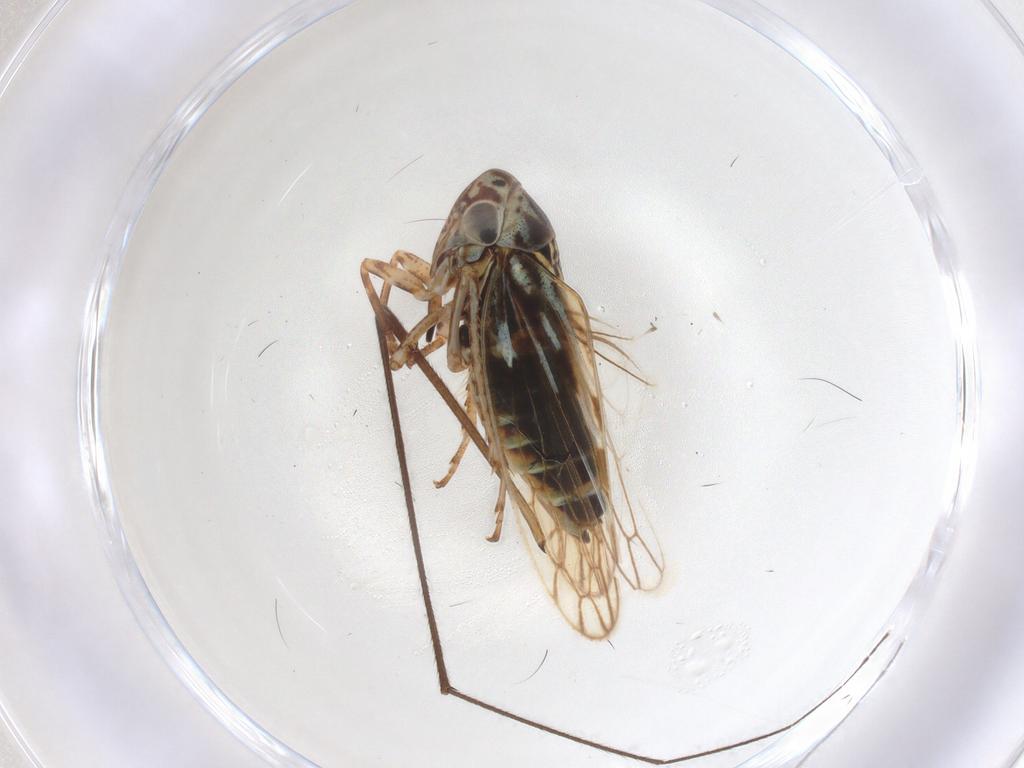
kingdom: Animalia
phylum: Arthropoda
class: Insecta
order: Hemiptera
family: Cicadellidae
